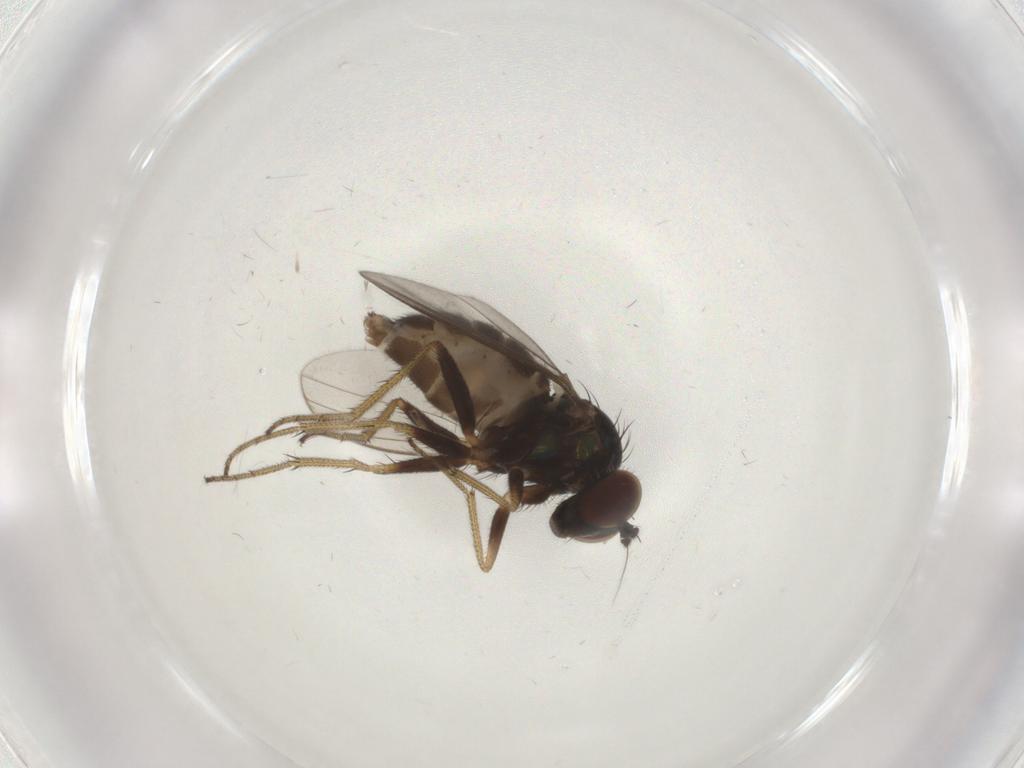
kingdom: Animalia
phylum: Arthropoda
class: Insecta
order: Diptera
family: Dolichopodidae
